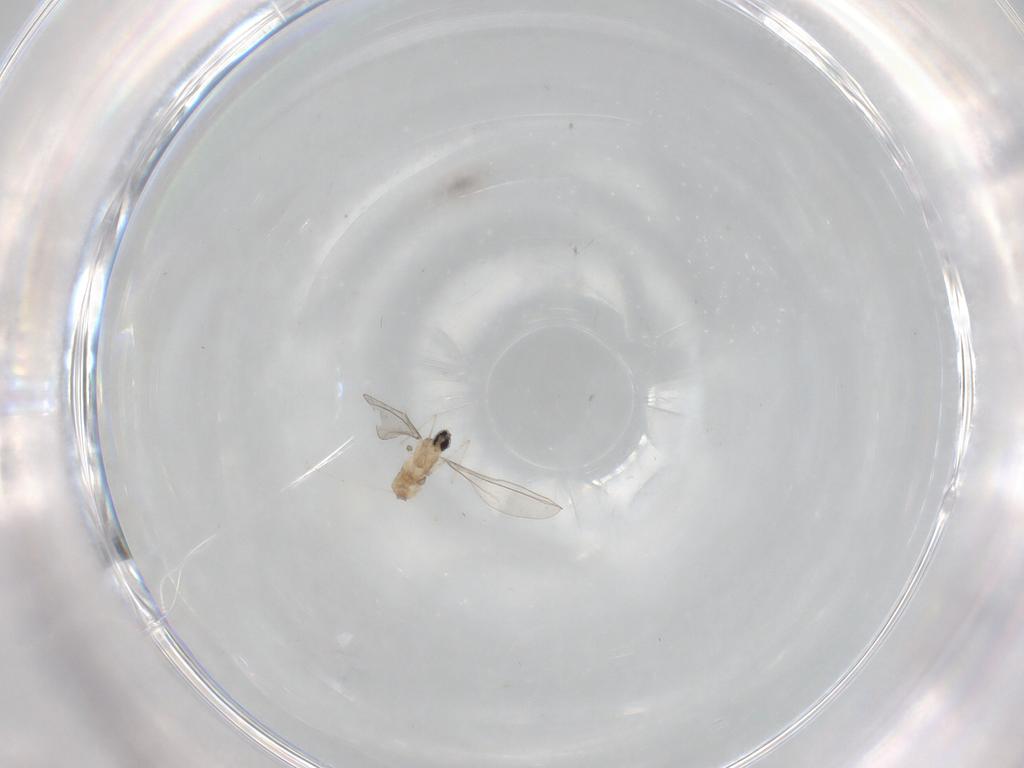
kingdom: Animalia
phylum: Arthropoda
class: Insecta
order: Diptera
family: Cecidomyiidae
